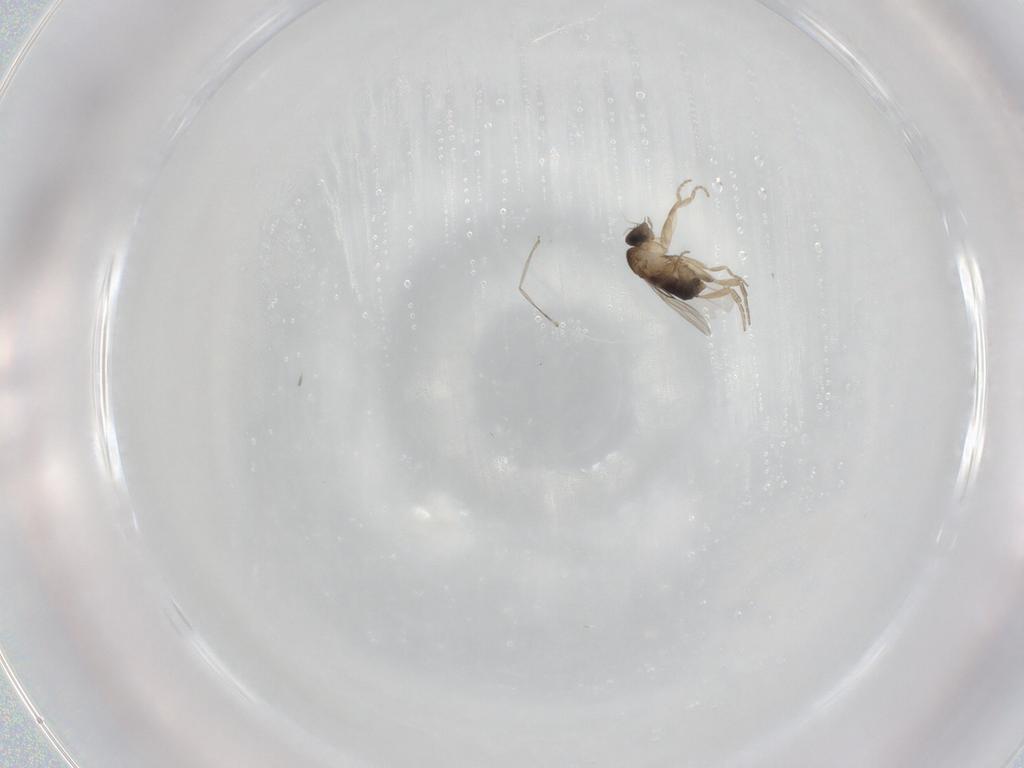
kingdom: Animalia
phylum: Arthropoda
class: Insecta
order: Diptera
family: Phoridae
